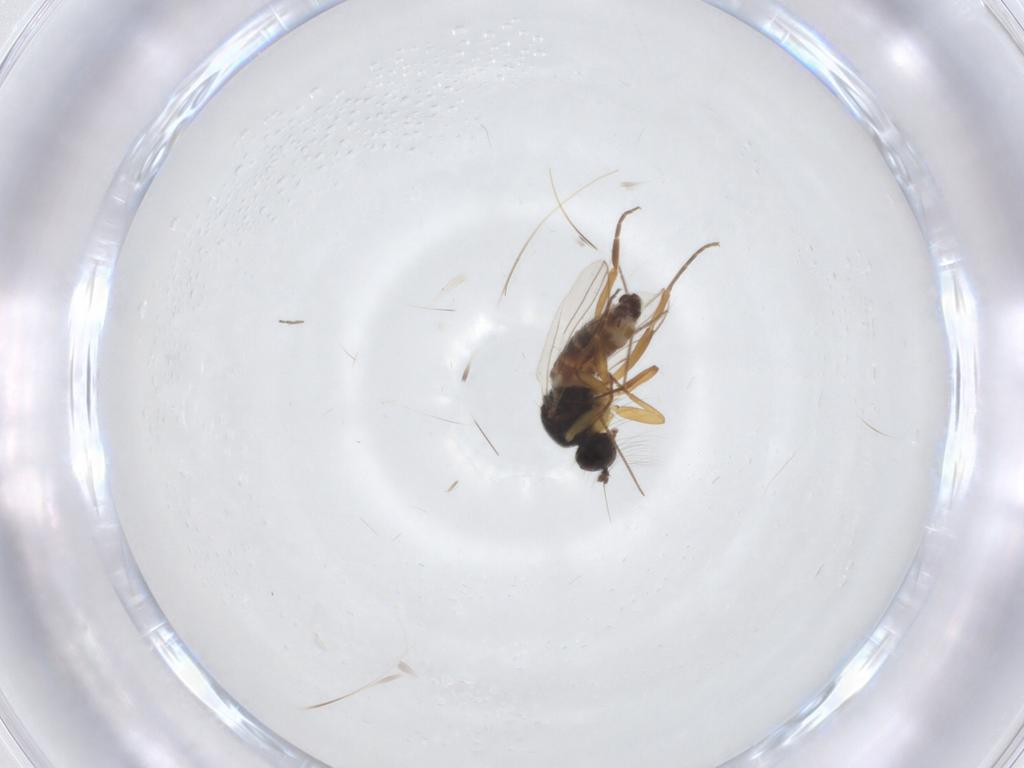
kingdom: Animalia
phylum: Arthropoda
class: Insecta
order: Diptera
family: Hybotidae
